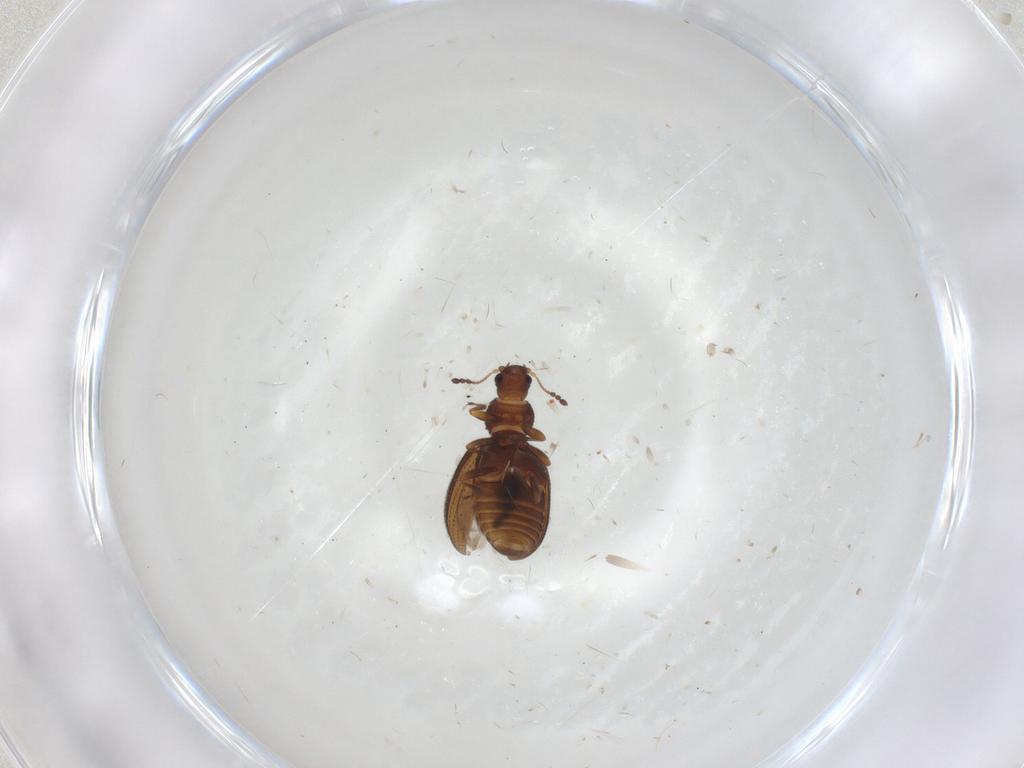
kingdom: Animalia
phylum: Arthropoda
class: Insecta
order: Coleoptera
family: Latridiidae
